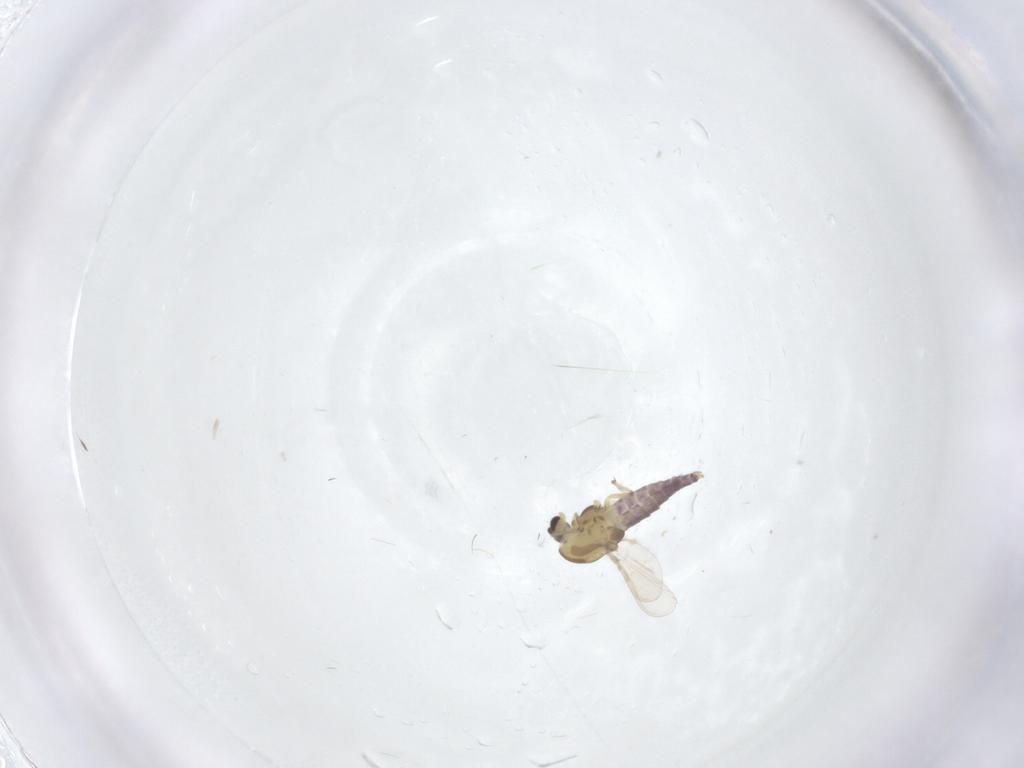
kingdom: Animalia
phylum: Arthropoda
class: Insecta
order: Diptera
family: Chironomidae
